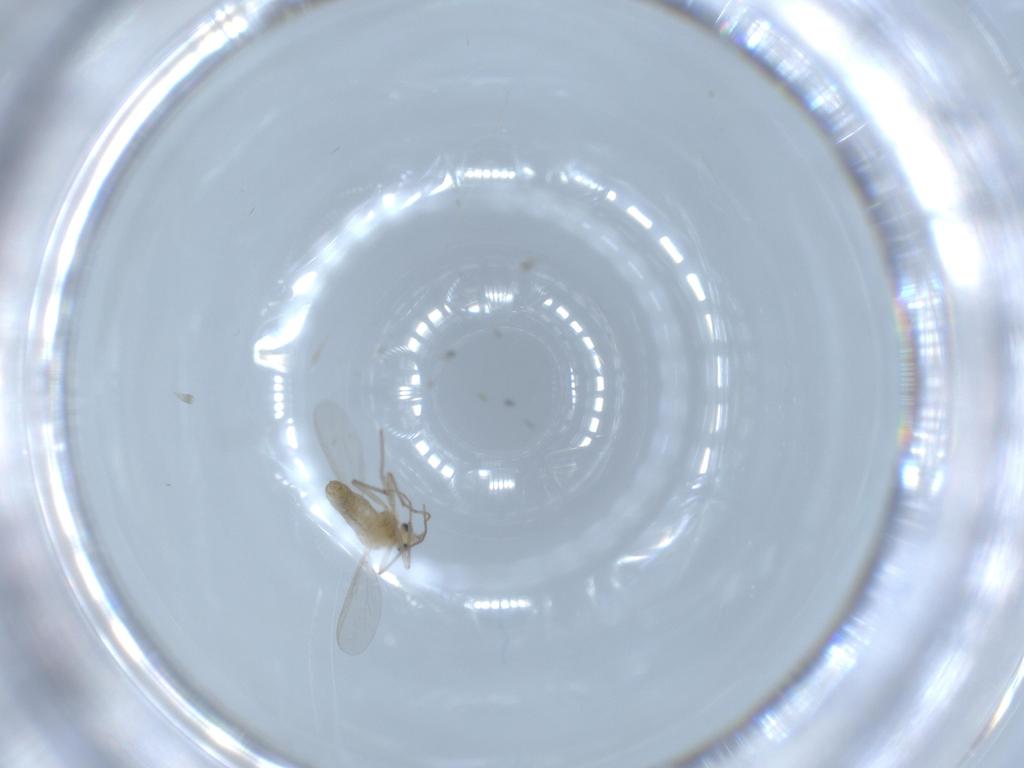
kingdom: Animalia
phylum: Arthropoda
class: Insecta
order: Diptera
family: Chironomidae
